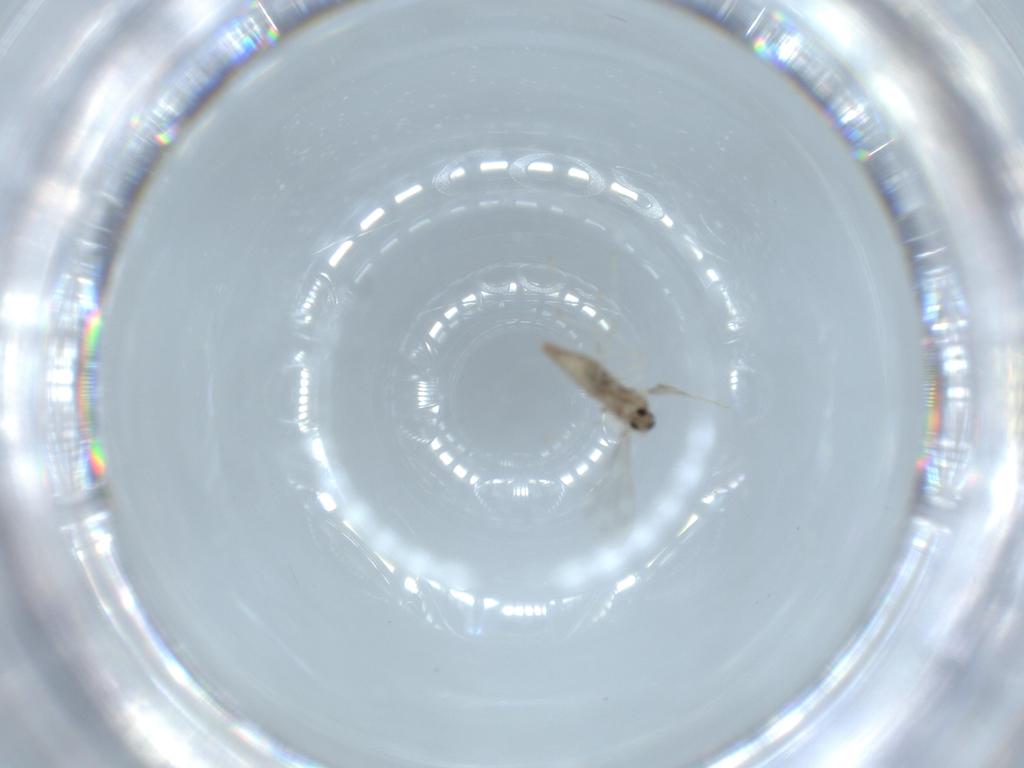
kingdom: Animalia
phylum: Arthropoda
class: Insecta
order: Diptera
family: Cecidomyiidae
